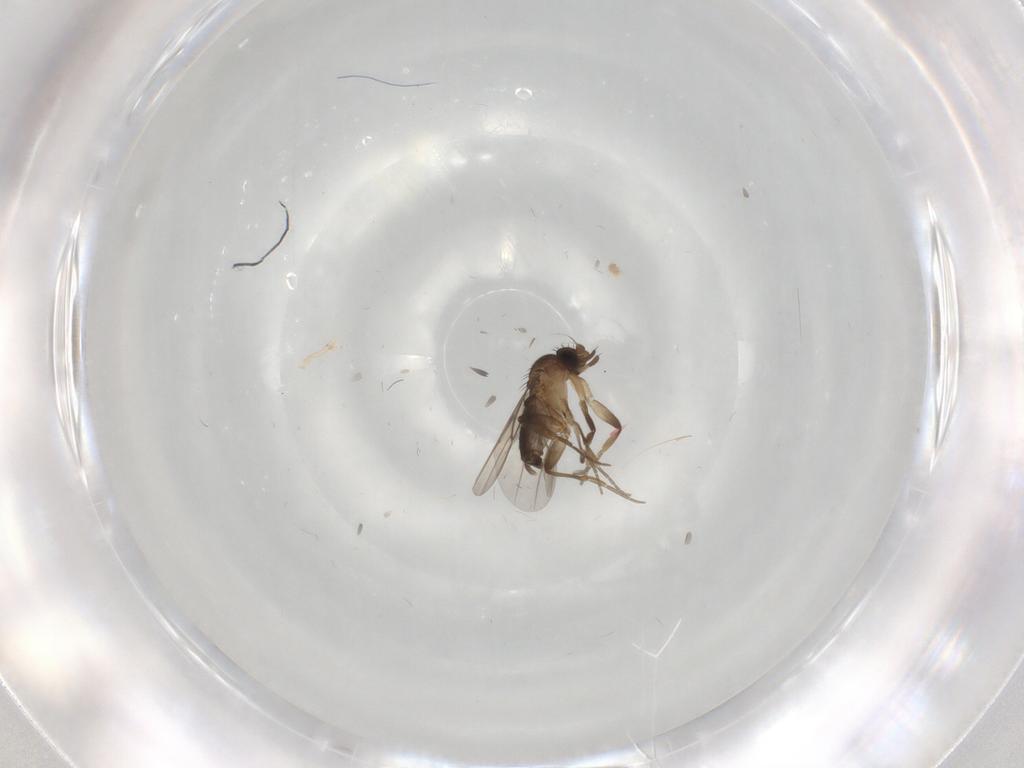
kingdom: Animalia
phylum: Arthropoda
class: Insecta
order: Diptera
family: Phoridae
